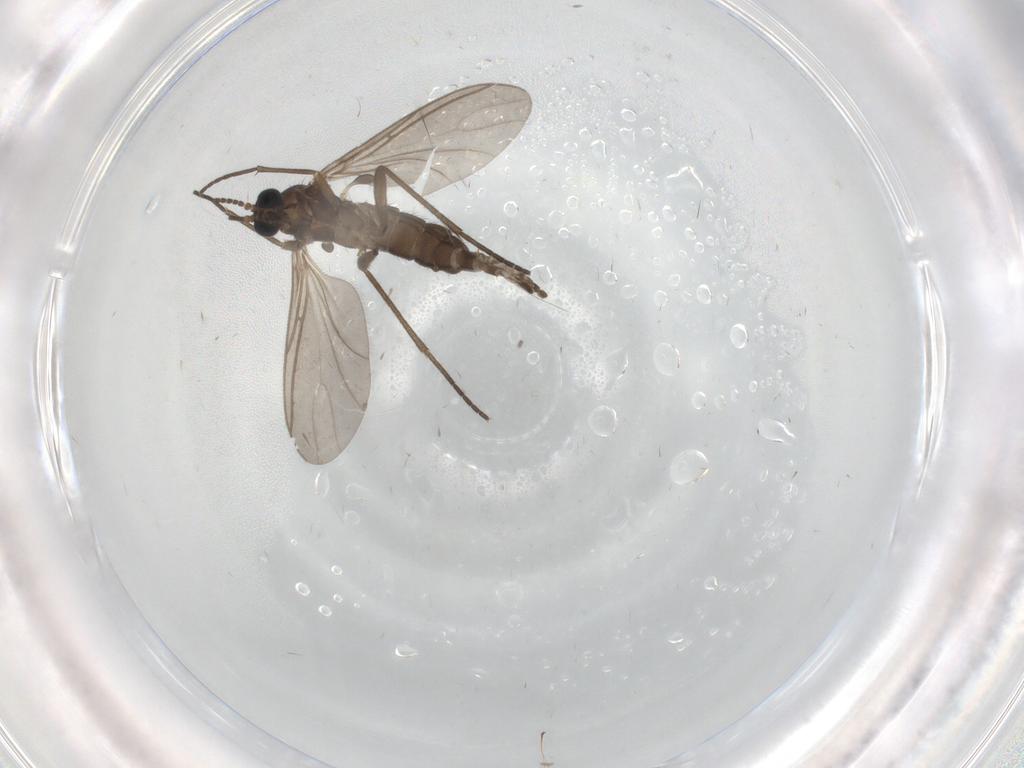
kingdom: Animalia
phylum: Arthropoda
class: Insecta
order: Diptera
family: Sciaridae
